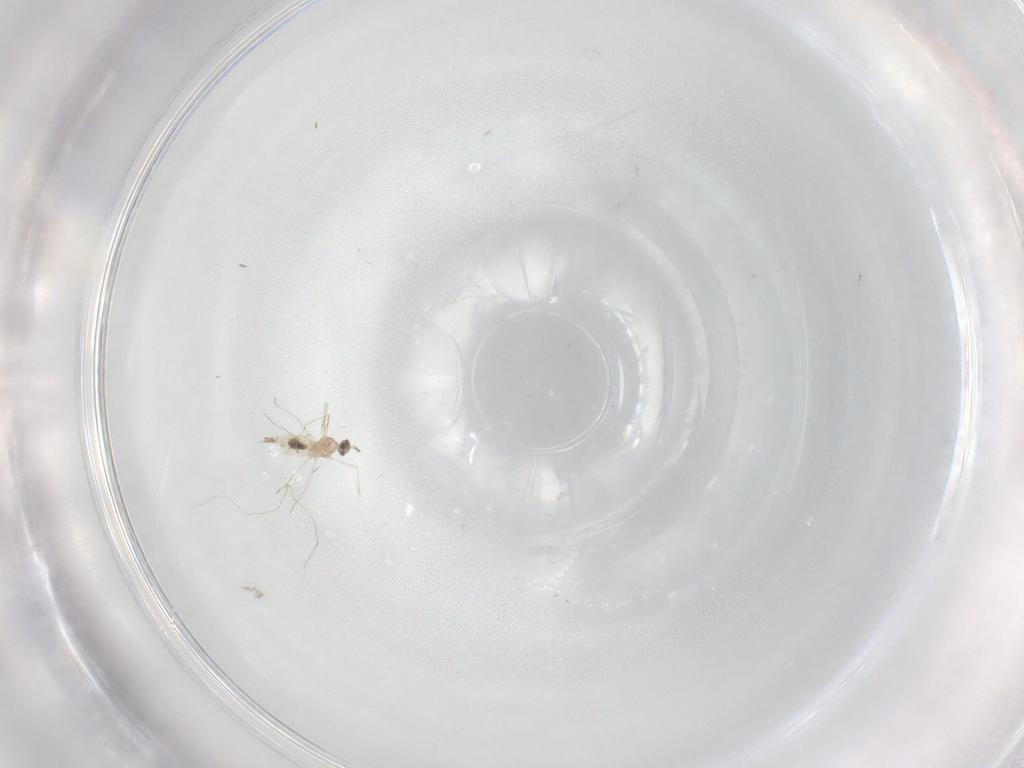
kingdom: Animalia
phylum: Arthropoda
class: Insecta
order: Diptera
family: Cecidomyiidae
